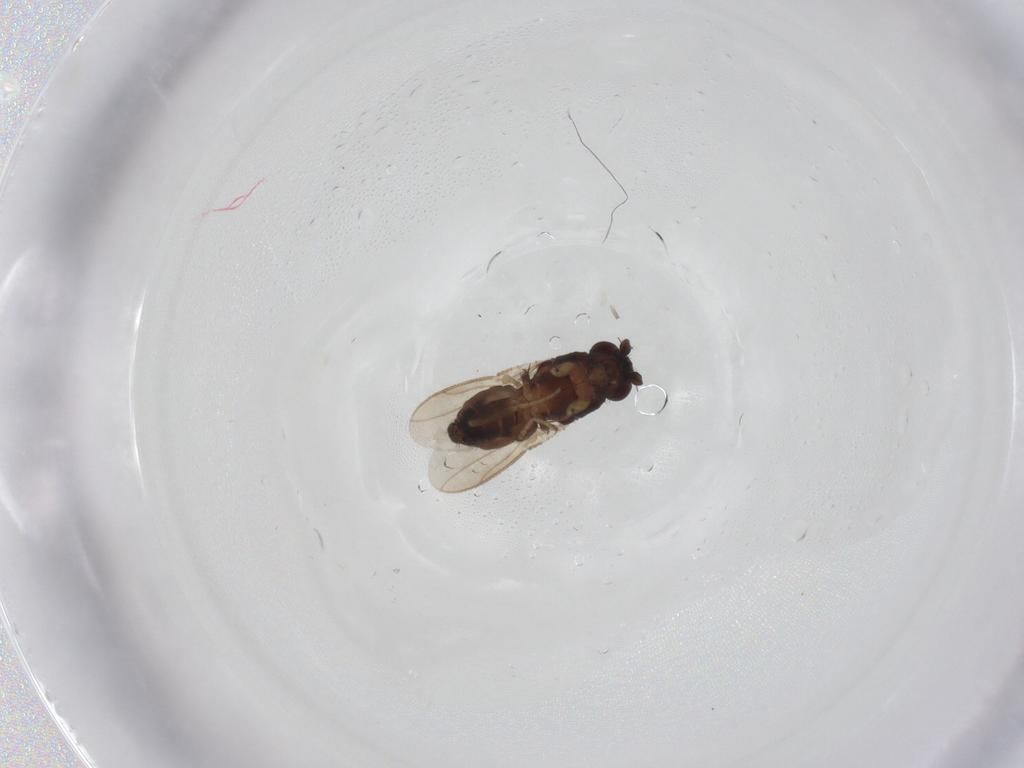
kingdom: Animalia
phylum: Arthropoda
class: Insecta
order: Diptera
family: Sphaeroceridae
